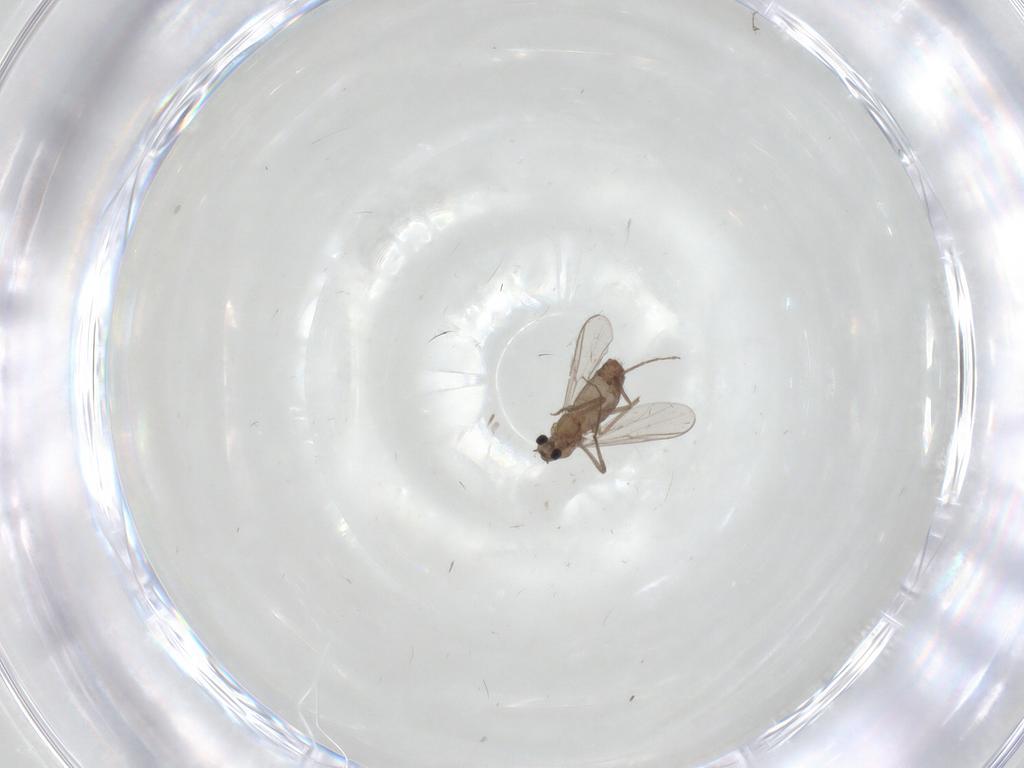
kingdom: Animalia
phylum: Arthropoda
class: Insecta
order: Diptera
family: Chironomidae
